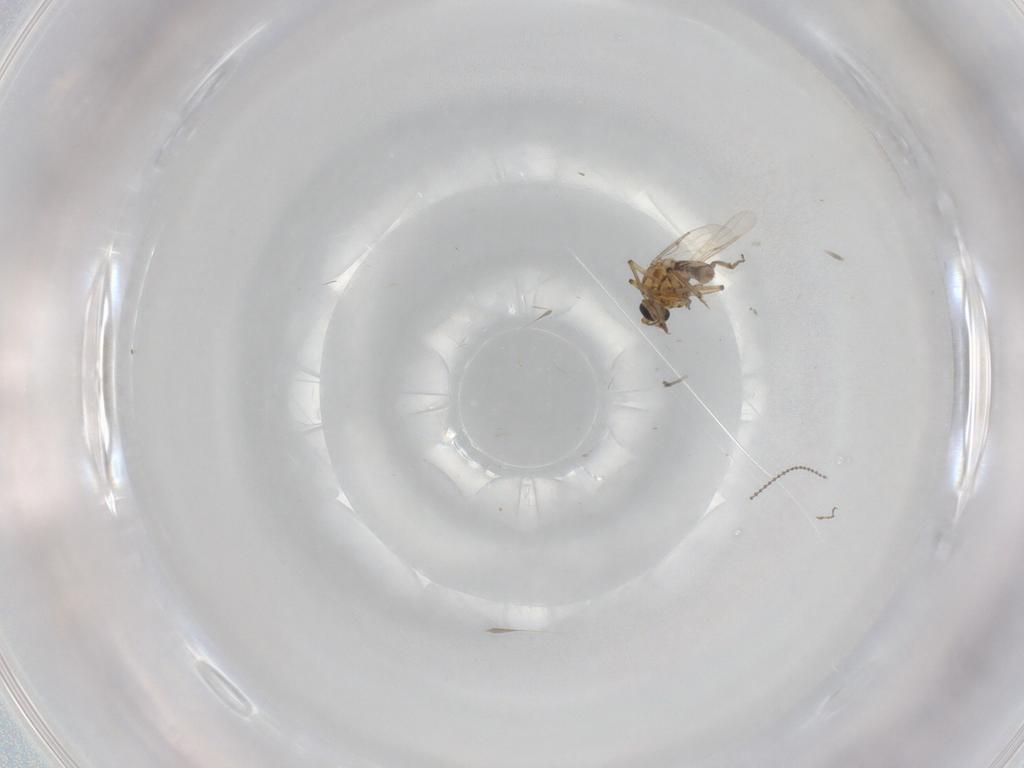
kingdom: Animalia
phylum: Arthropoda
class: Insecta
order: Diptera
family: Ceratopogonidae
